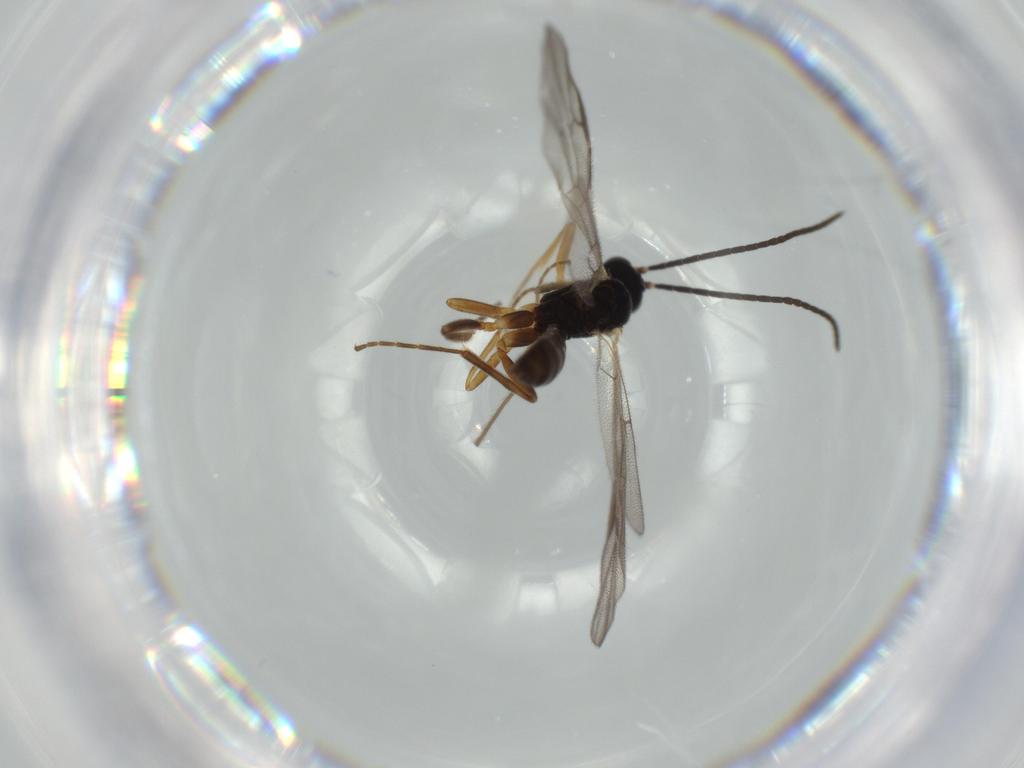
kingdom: Animalia
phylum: Arthropoda
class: Insecta
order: Hymenoptera
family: Ichneumonidae
